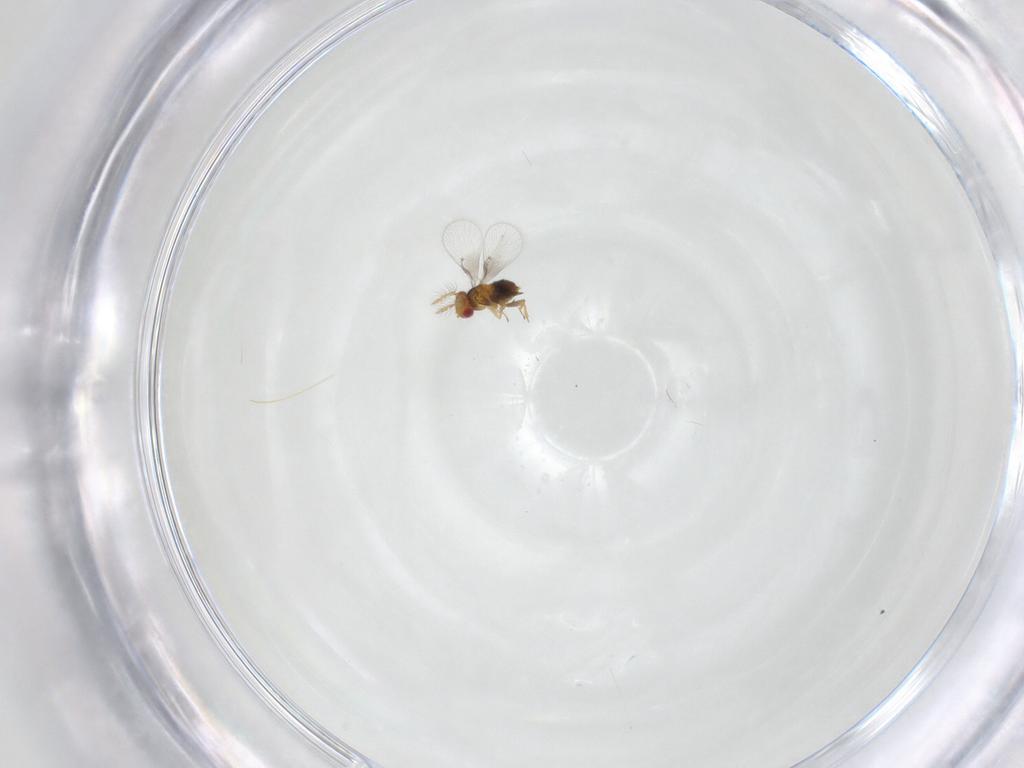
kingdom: Animalia
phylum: Arthropoda
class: Insecta
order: Hymenoptera
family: Trichogrammatidae
